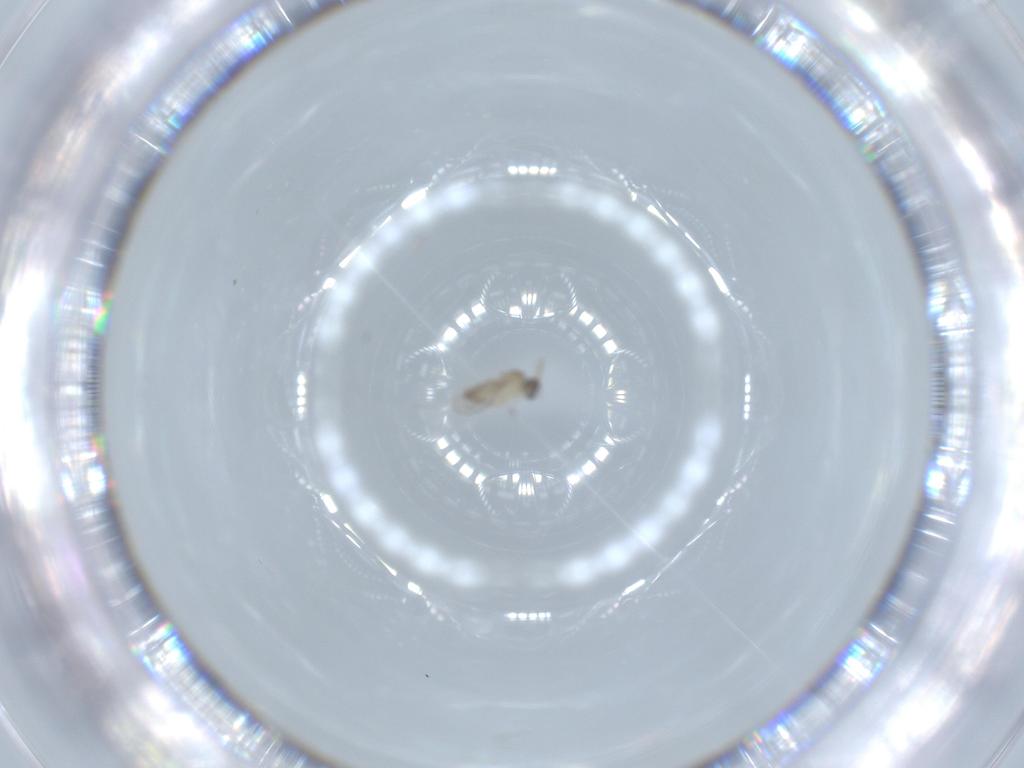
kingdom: Animalia
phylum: Arthropoda
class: Insecta
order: Diptera
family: Cecidomyiidae
